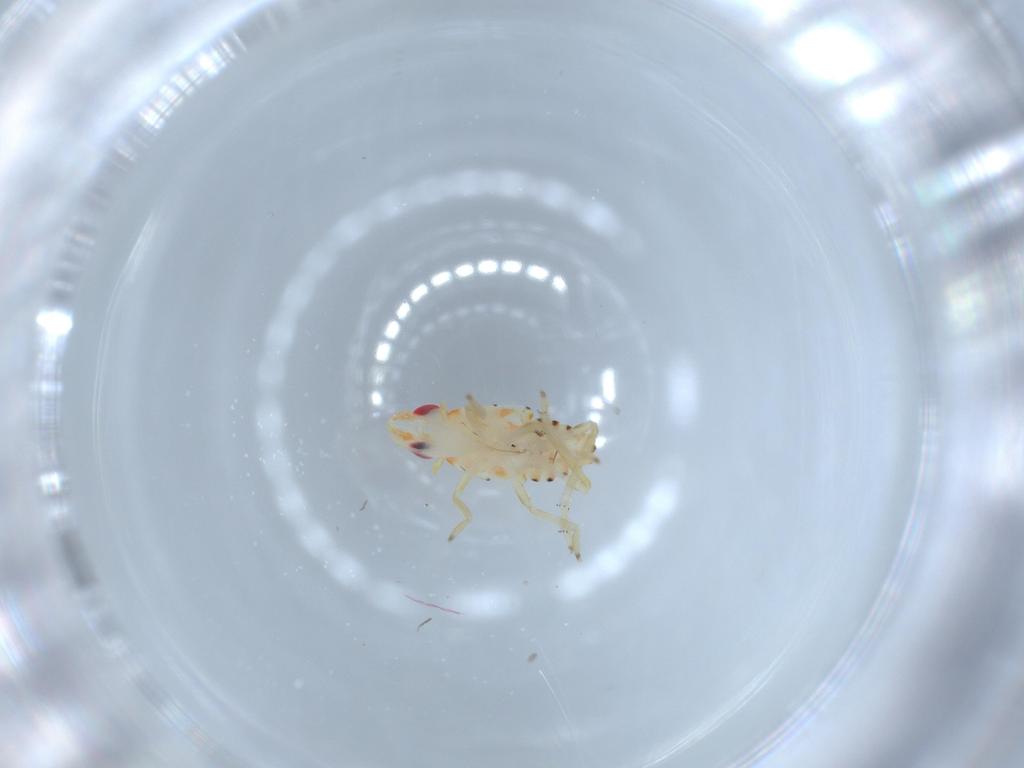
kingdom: Animalia
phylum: Arthropoda
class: Insecta
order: Hemiptera
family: Tropiduchidae
